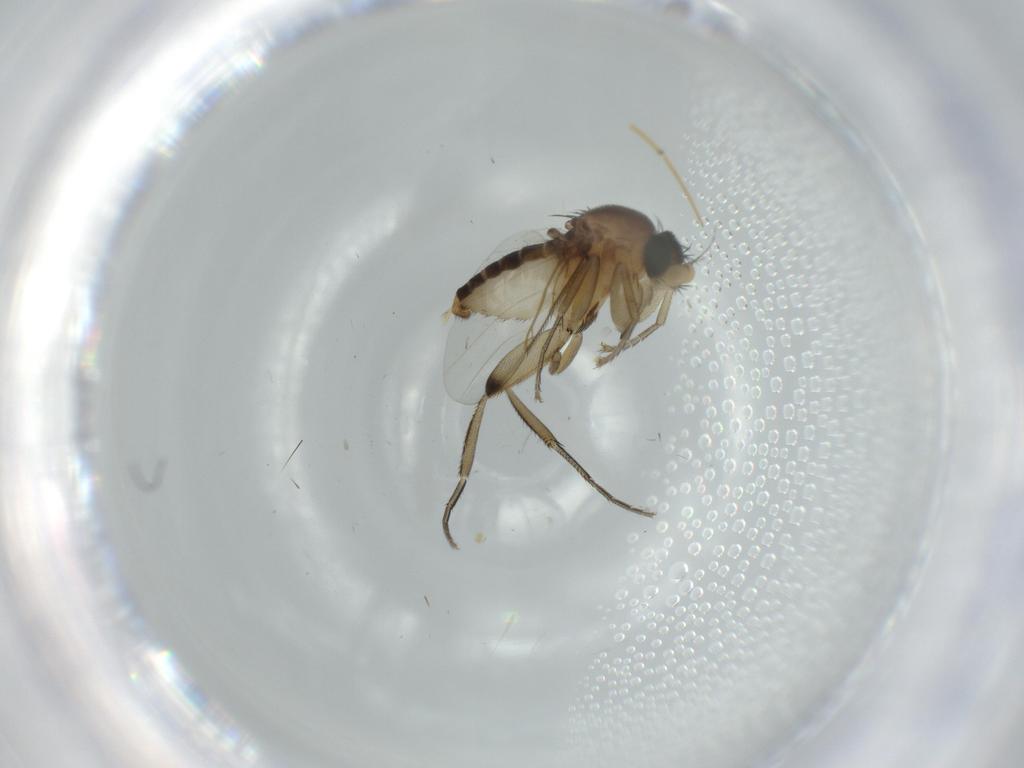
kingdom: Animalia
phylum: Arthropoda
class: Insecta
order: Diptera
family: Phoridae
